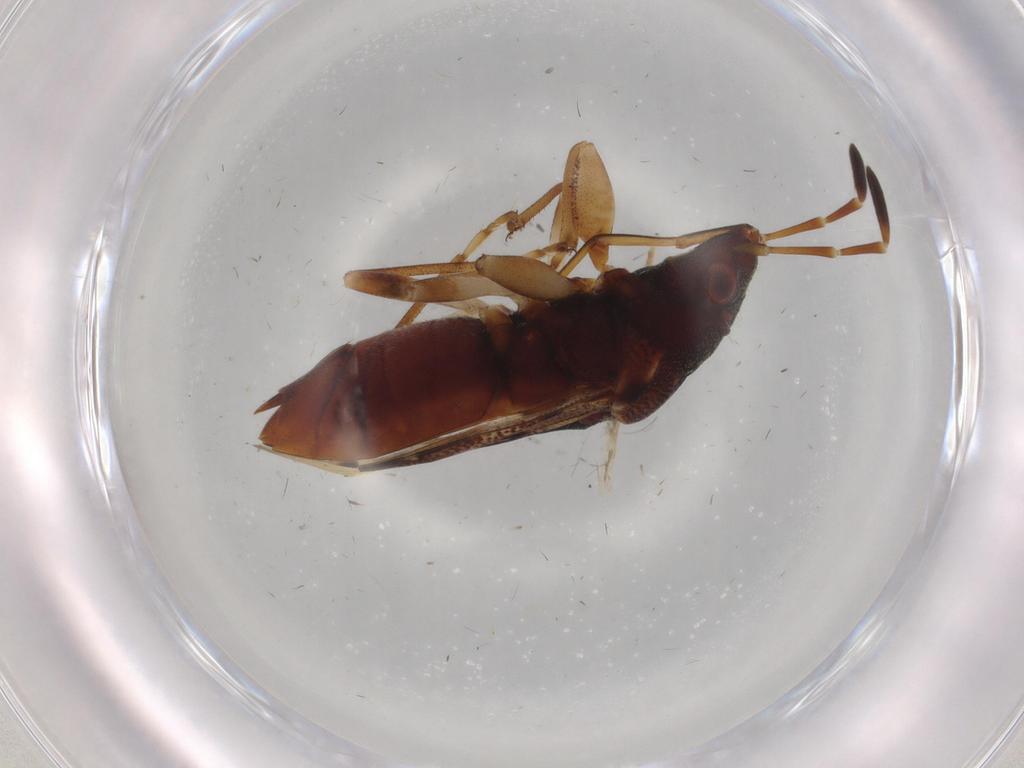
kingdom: Animalia
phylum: Arthropoda
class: Insecta
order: Hemiptera
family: Rhyparochromidae
